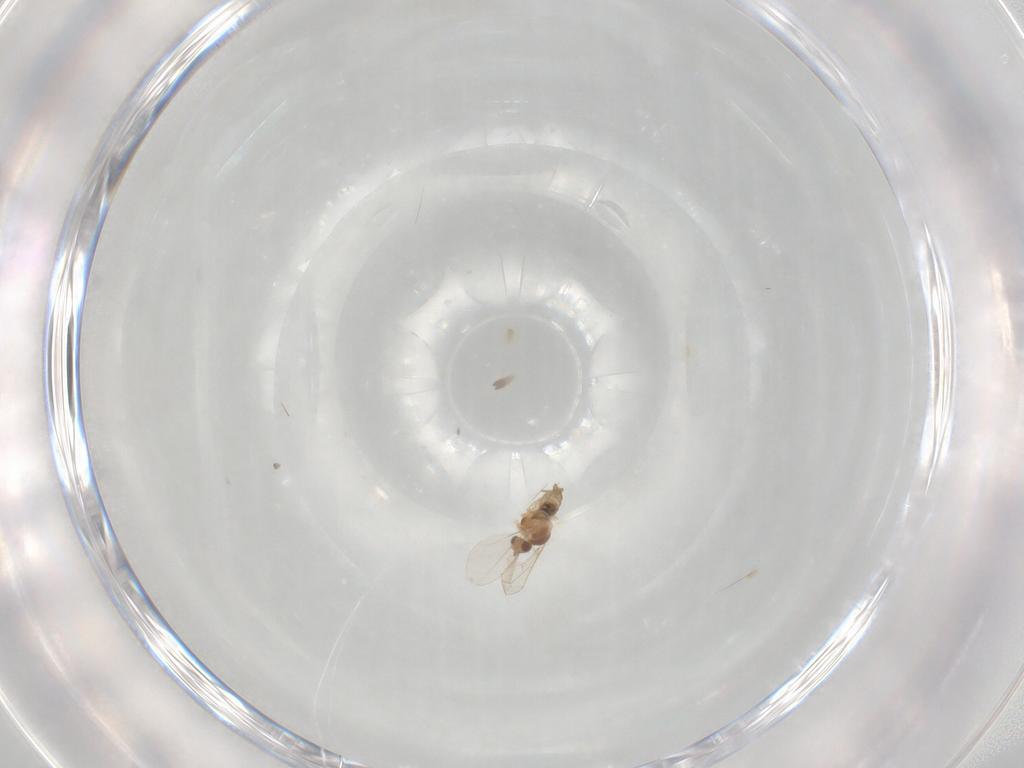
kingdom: Animalia
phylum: Arthropoda
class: Insecta
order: Diptera
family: Cecidomyiidae
